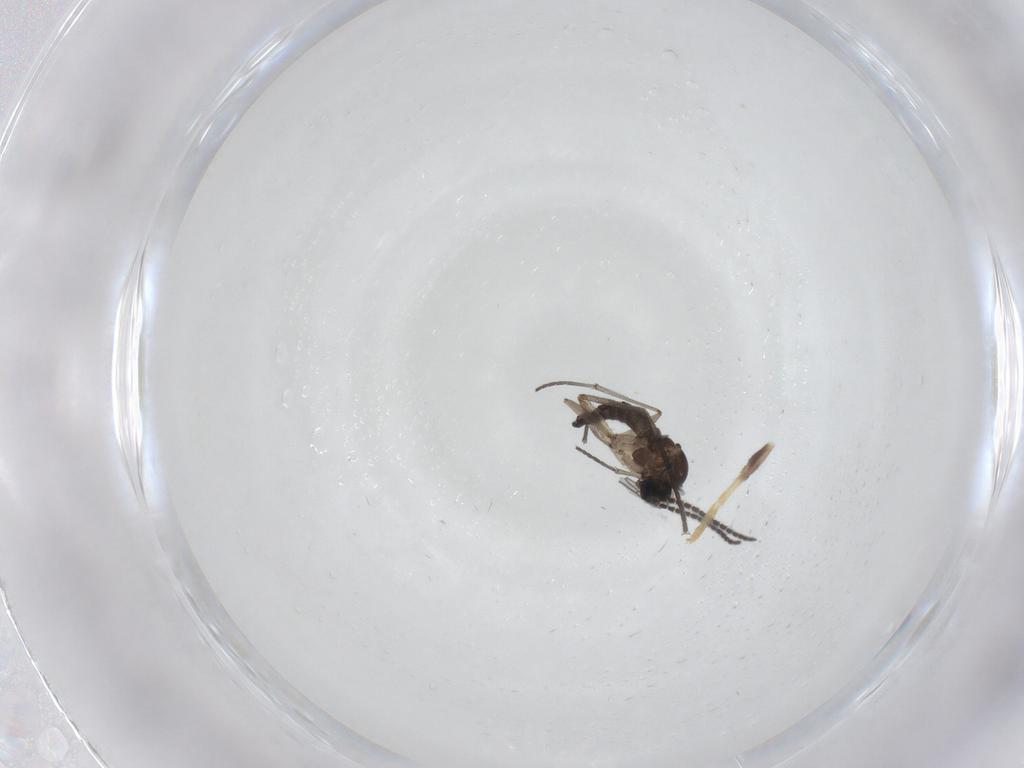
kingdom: Animalia
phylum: Arthropoda
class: Insecta
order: Diptera
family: Sciaridae
